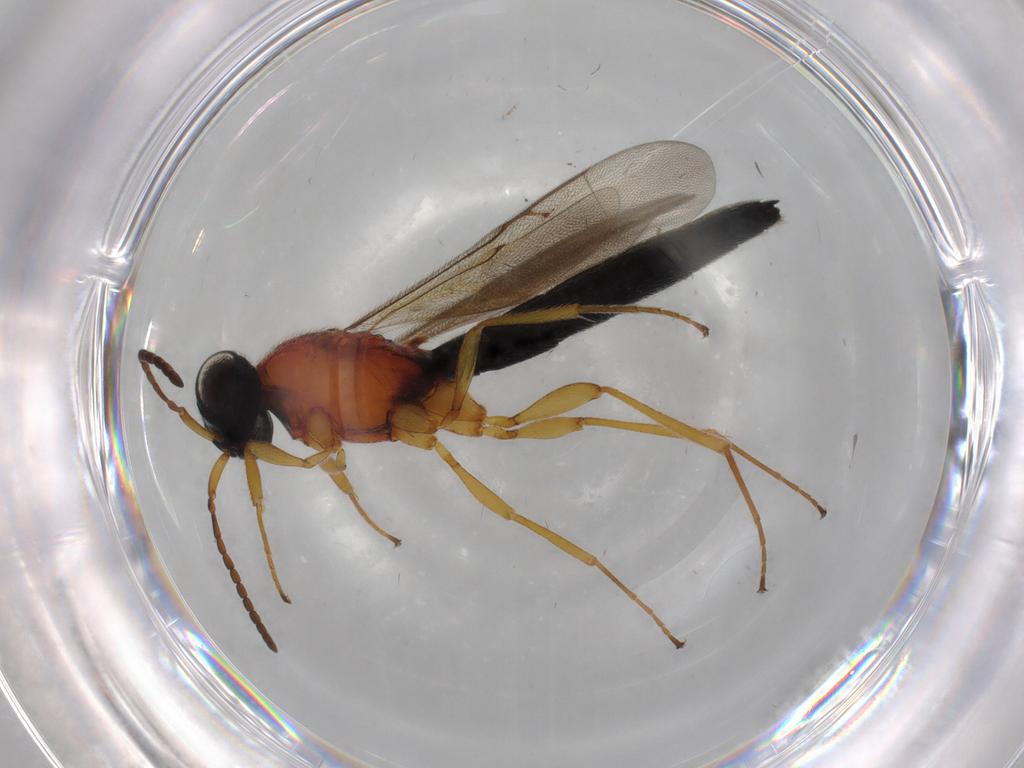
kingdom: Animalia
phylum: Arthropoda
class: Insecta
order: Hymenoptera
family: Scelionidae
